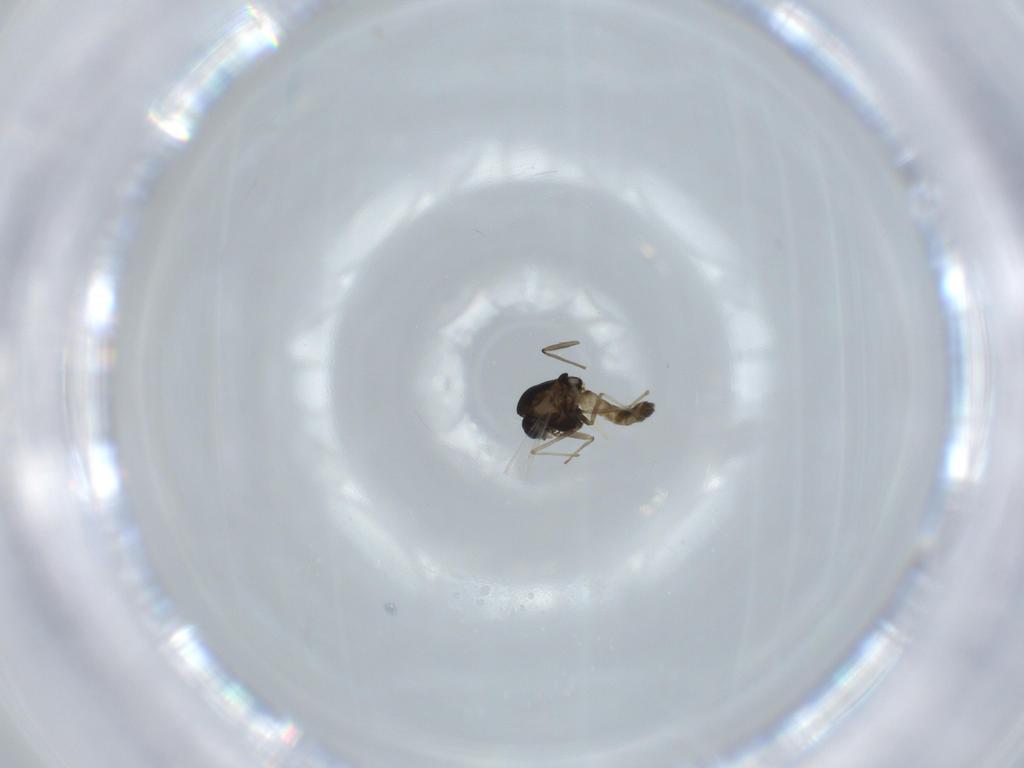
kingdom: Animalia
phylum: Arthropoda
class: Insecta
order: Diptera
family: Chironomidae
